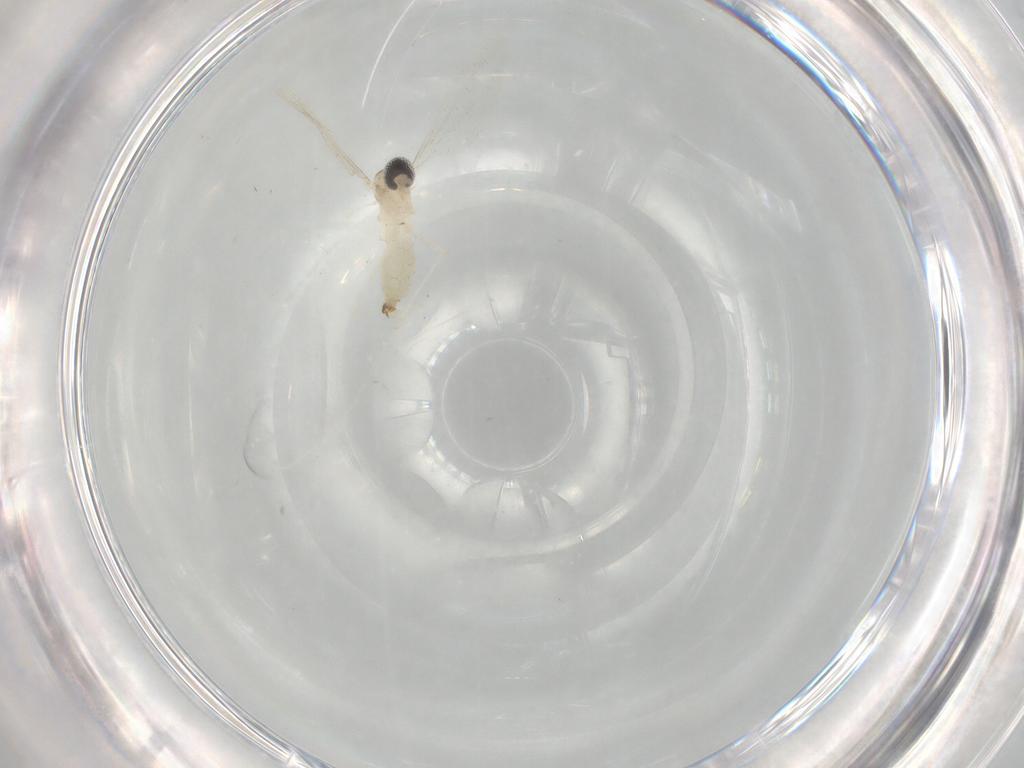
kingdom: Animalia
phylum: Arthropoda
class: Insecta
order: Diptera
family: Cecidomyiidae
